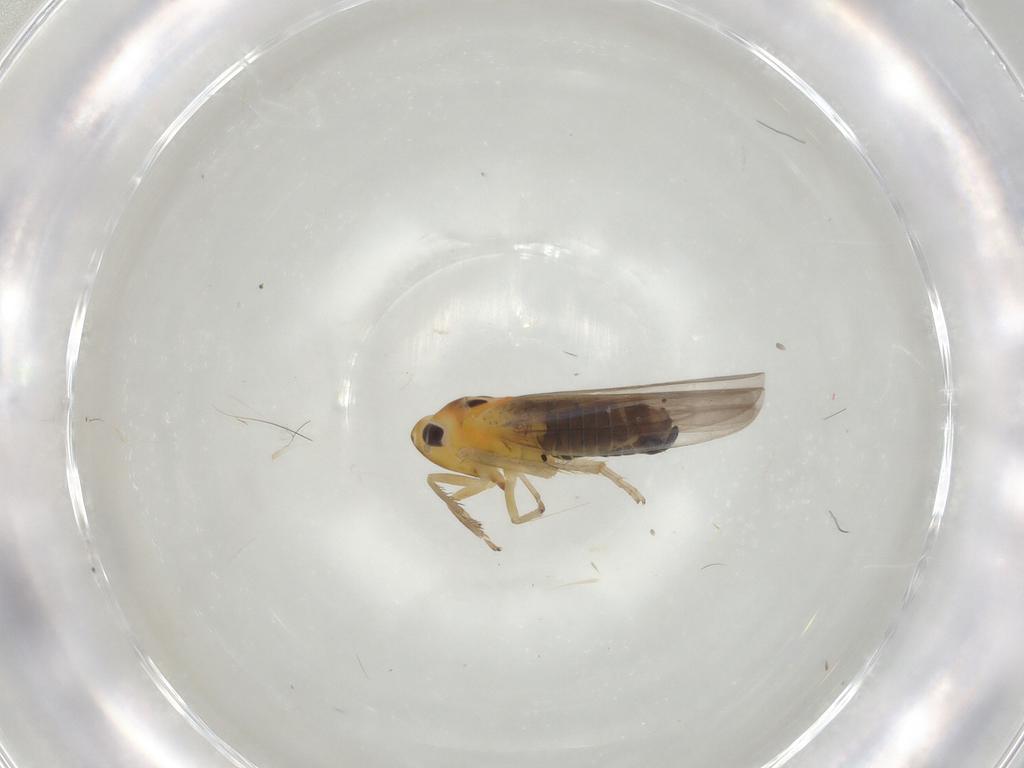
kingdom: Animalia
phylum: Arthropoda
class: Insecta
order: Hemiptera
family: Cicadellidae
